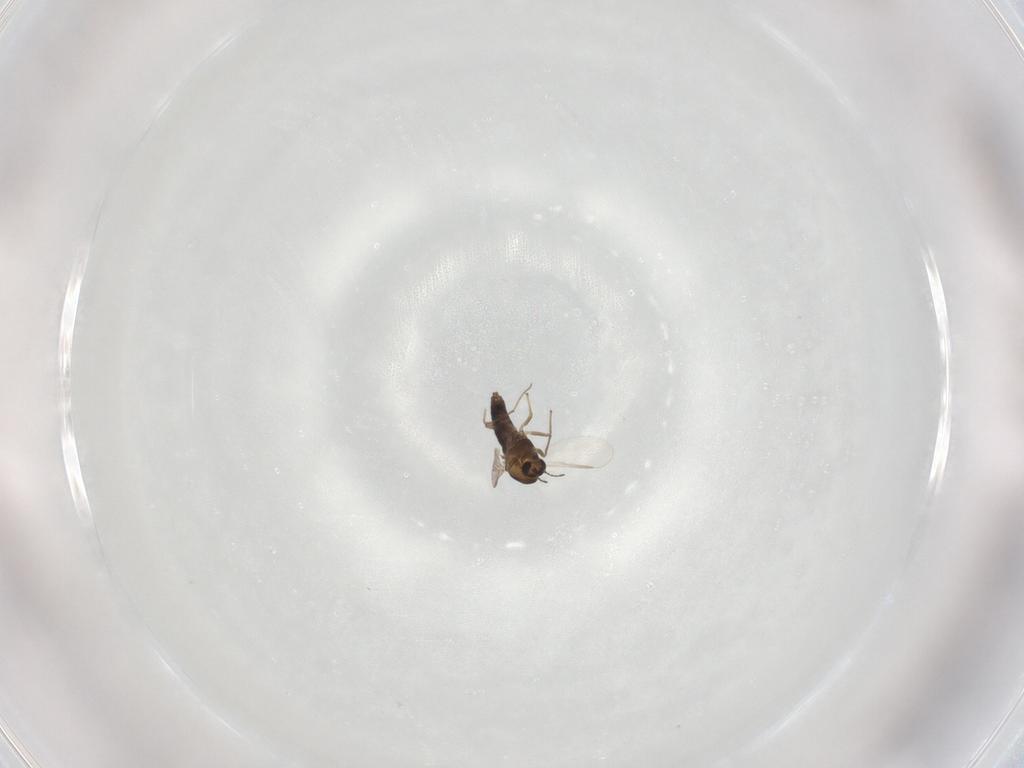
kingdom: Animalia
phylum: Arthropoda
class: Insecta
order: Diptera
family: Chironomidae
